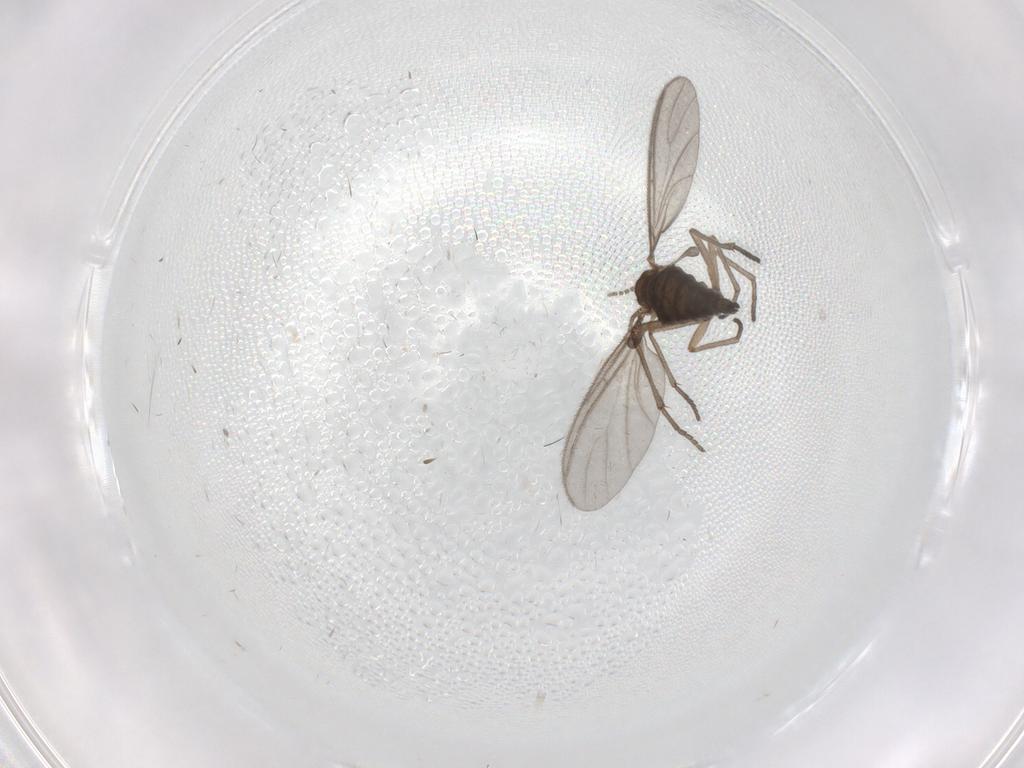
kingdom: Animalia
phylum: Arthropoda
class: Insecta
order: Diptera
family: Sciaridae
